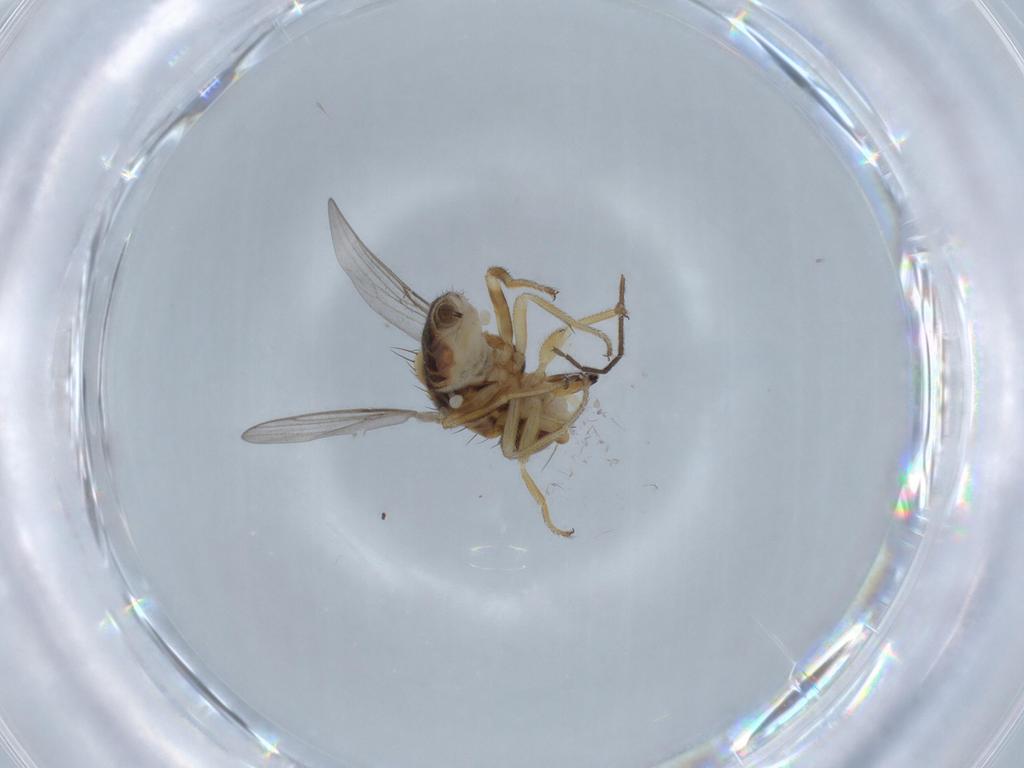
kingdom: Animalia
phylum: Arthropoda
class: Insecta
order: Diptera
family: Chloropidae
